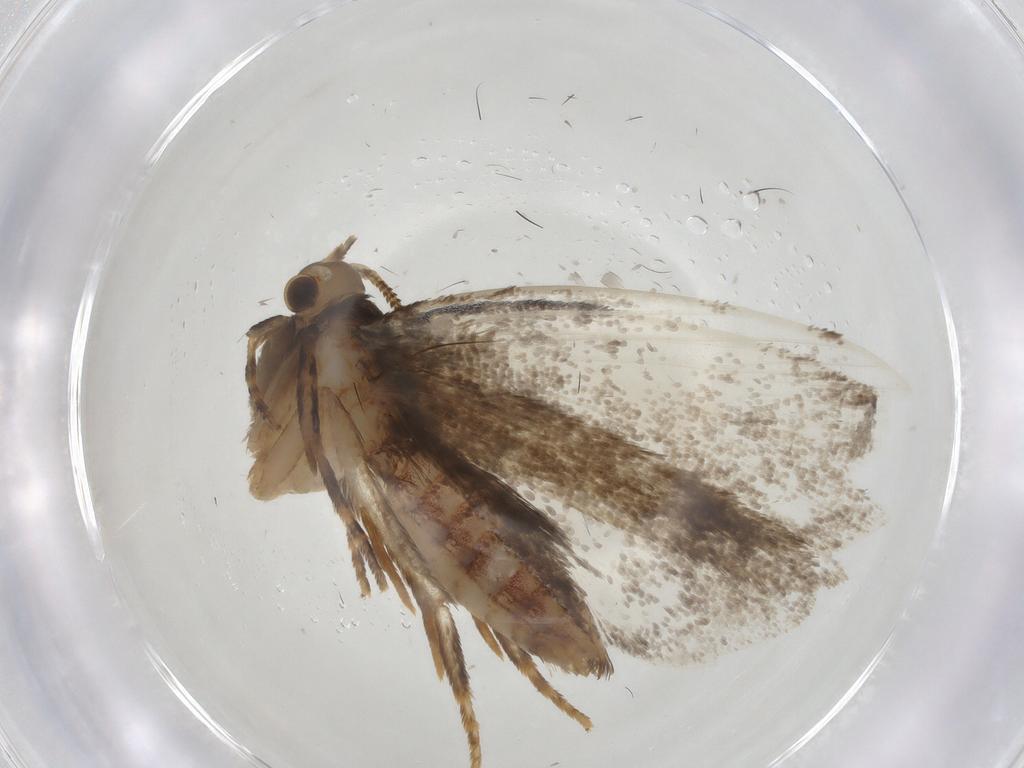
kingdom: Animalia
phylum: Arthropoda
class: Insecta
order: Lepidoptera
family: Tineidae
